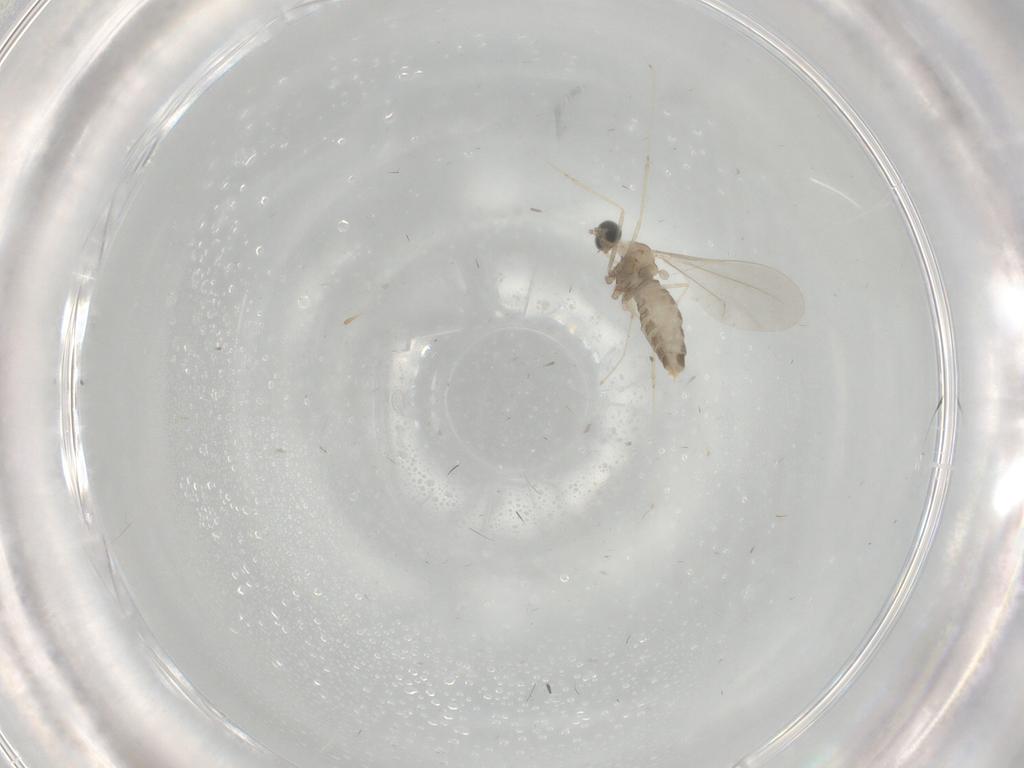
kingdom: Animalia
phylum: Arthropoda
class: Insecta
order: Diptera
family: Cecidomyiidae
